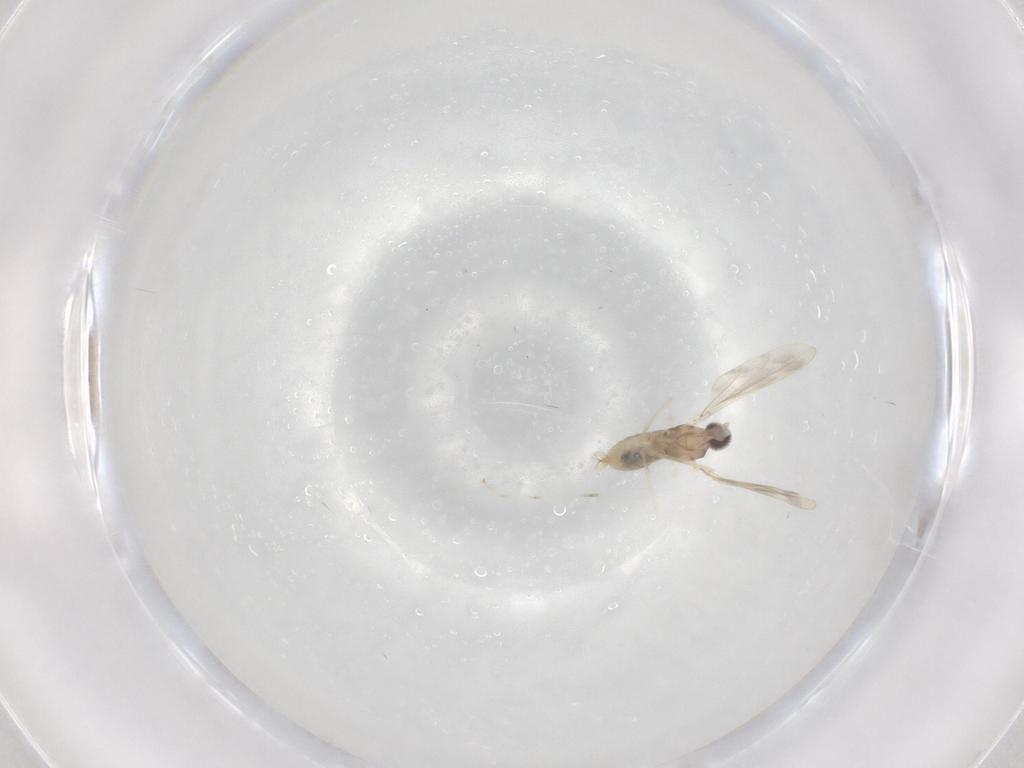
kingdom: Animalia
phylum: Arthropoda
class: Insecta
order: Diptera
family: Cecidomyiidae
